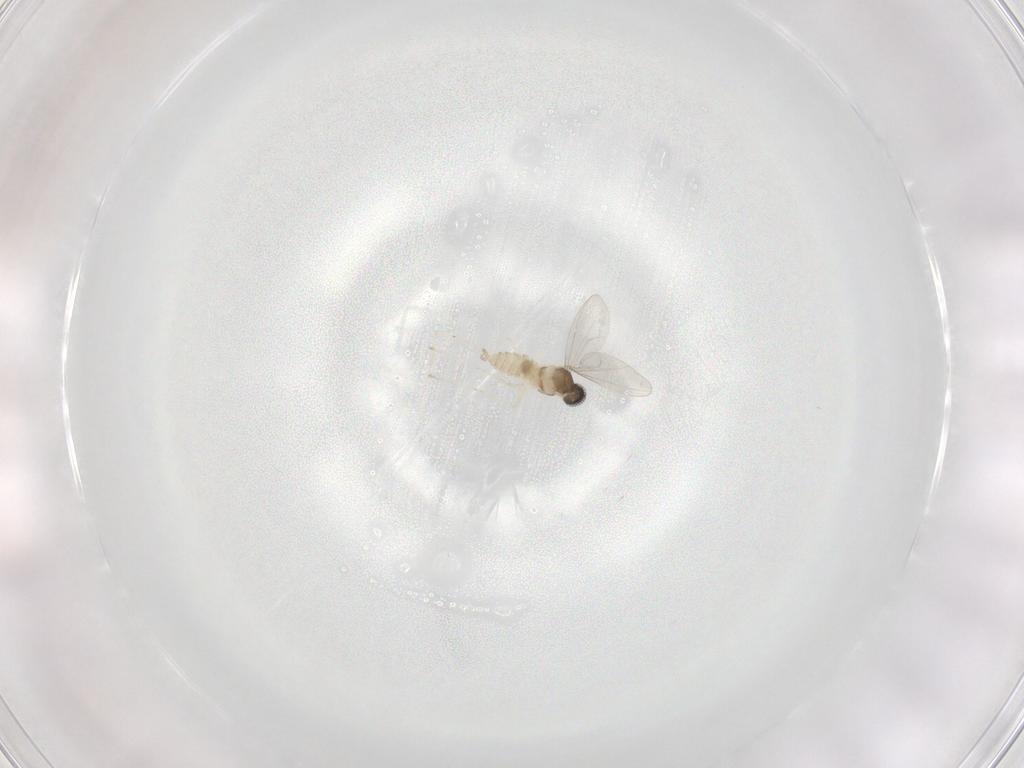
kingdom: Animalia
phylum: Arthropoda
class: Insecta
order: Diptera
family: Cecidomyiidae
